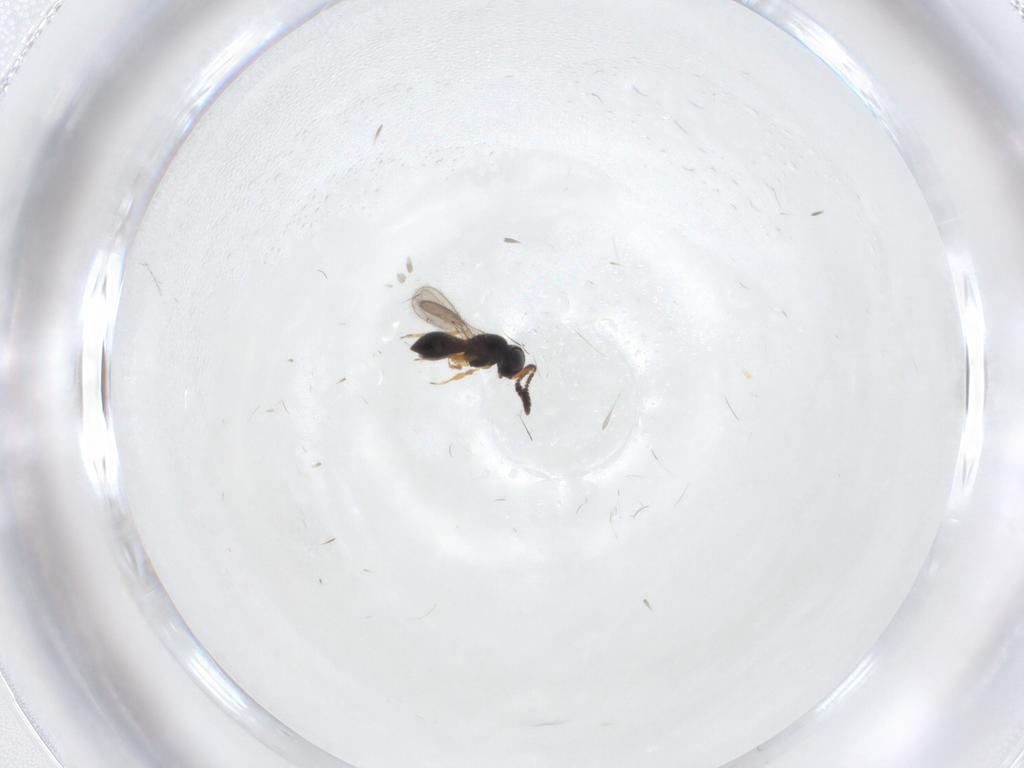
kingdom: Animalia
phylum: Arthropoda
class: Insecta
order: Hymenoptera
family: Scelionidae
